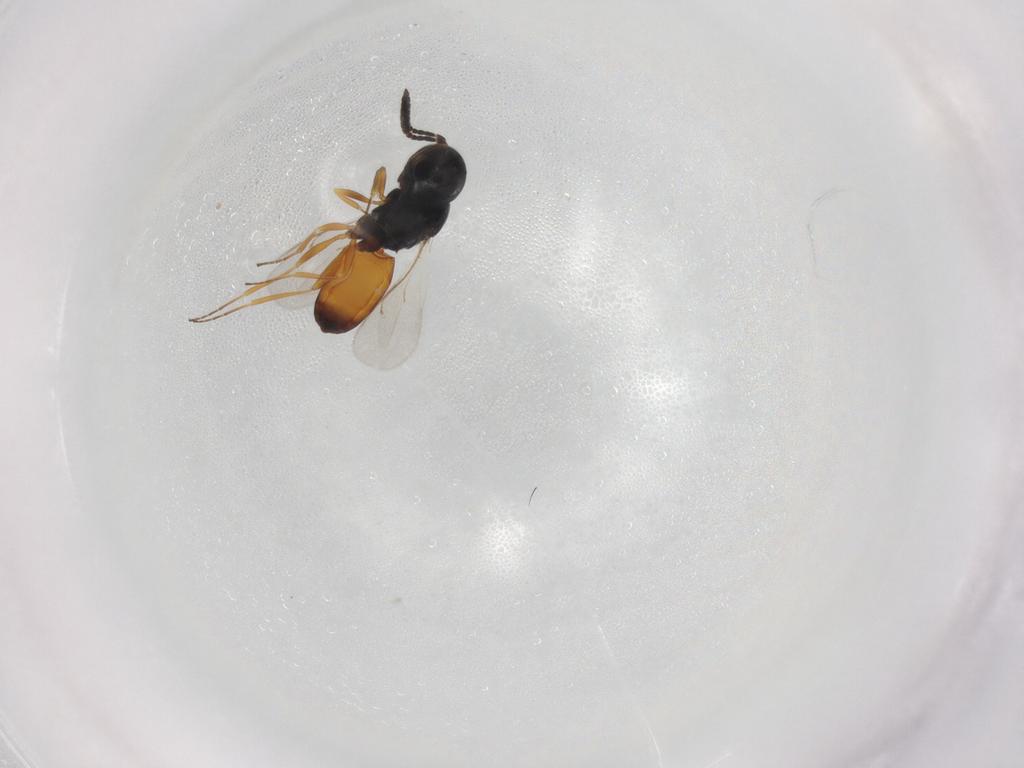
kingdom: Animalia
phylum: Arthropoda
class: Insecta
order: Hymenoptera
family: Scelionidae
